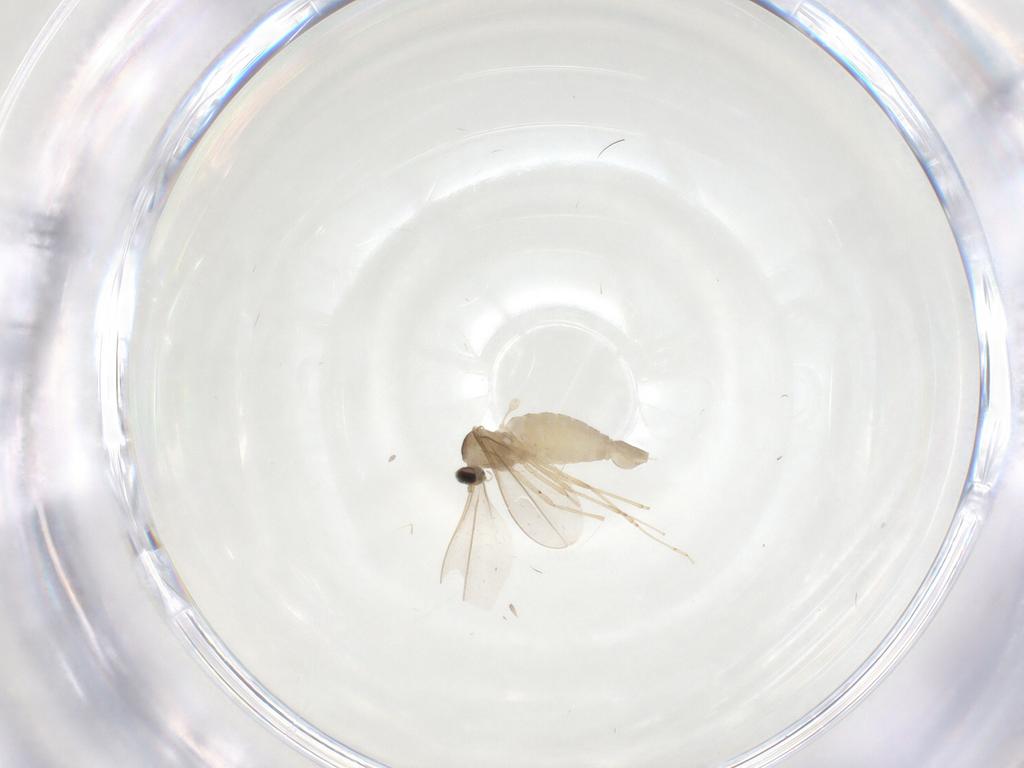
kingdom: Animalia
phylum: Arthropoda
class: Insecta
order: Diptera
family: Cecidomyiidae
